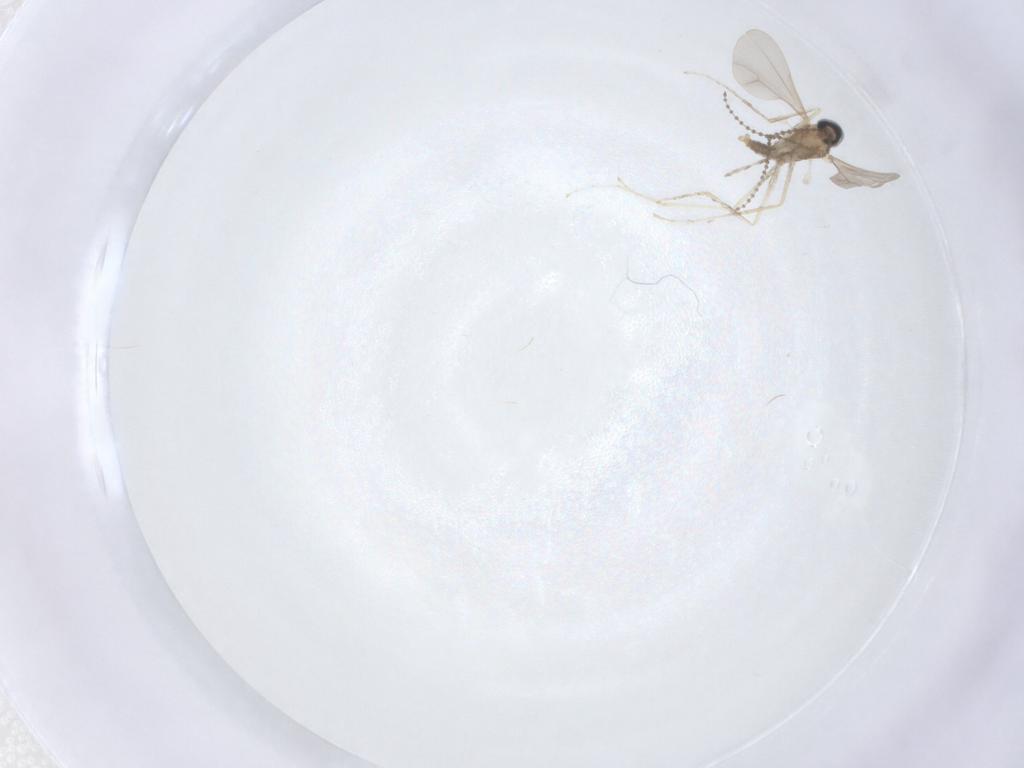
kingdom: Animalia
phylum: Arthropoda
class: Insecta
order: Diptera
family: Cecidomyiidae
